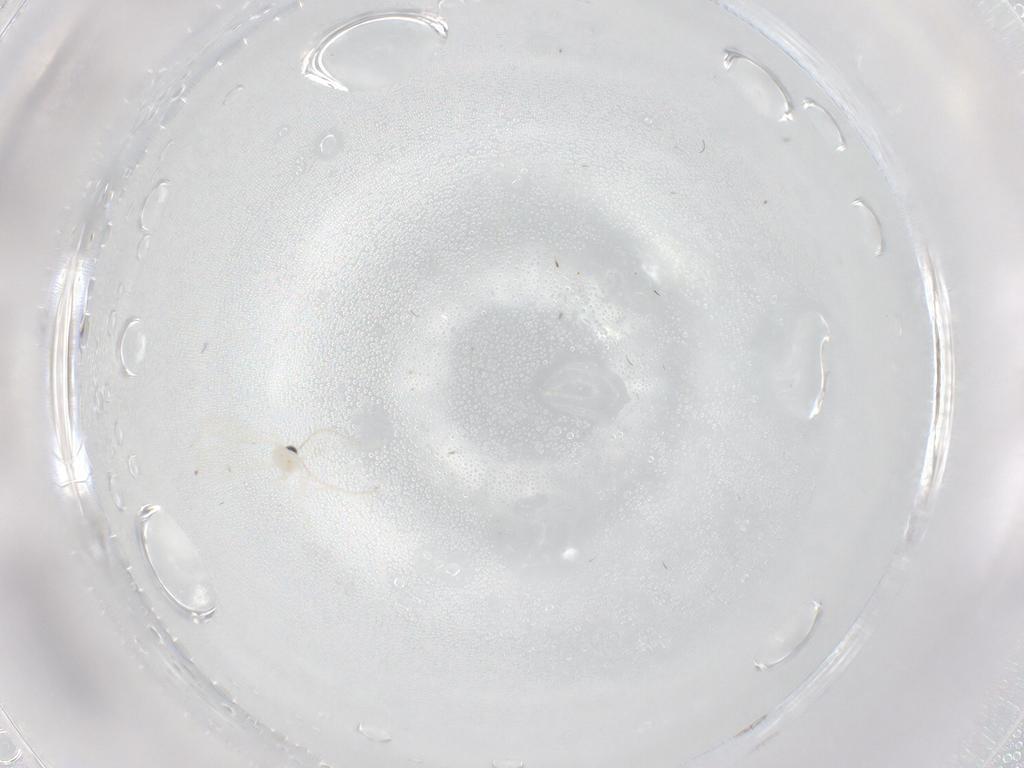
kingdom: Animalia
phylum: Arthropoda
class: Insecta
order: Diptera
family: Cecidomyiidae
